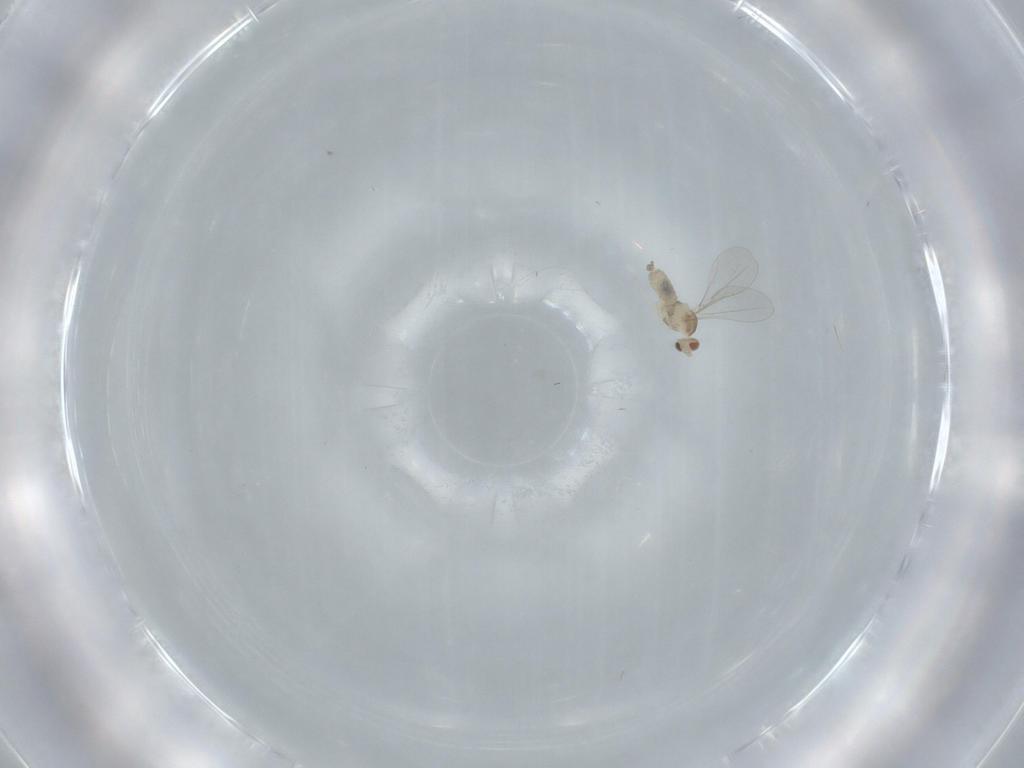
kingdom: Animalia
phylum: Arthropoda
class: Insecta
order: Diptera
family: Cecidomyiidae
